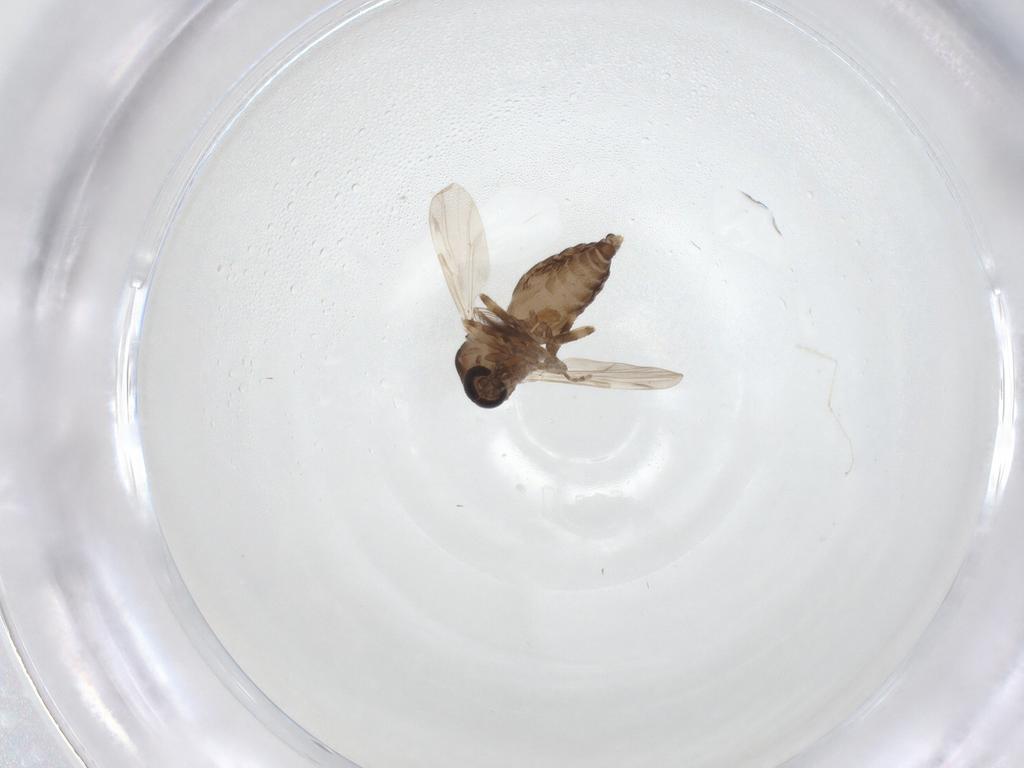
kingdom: Animalia
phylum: Arthropoda
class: Insecta
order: Diptera
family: Ceratopogonidae
